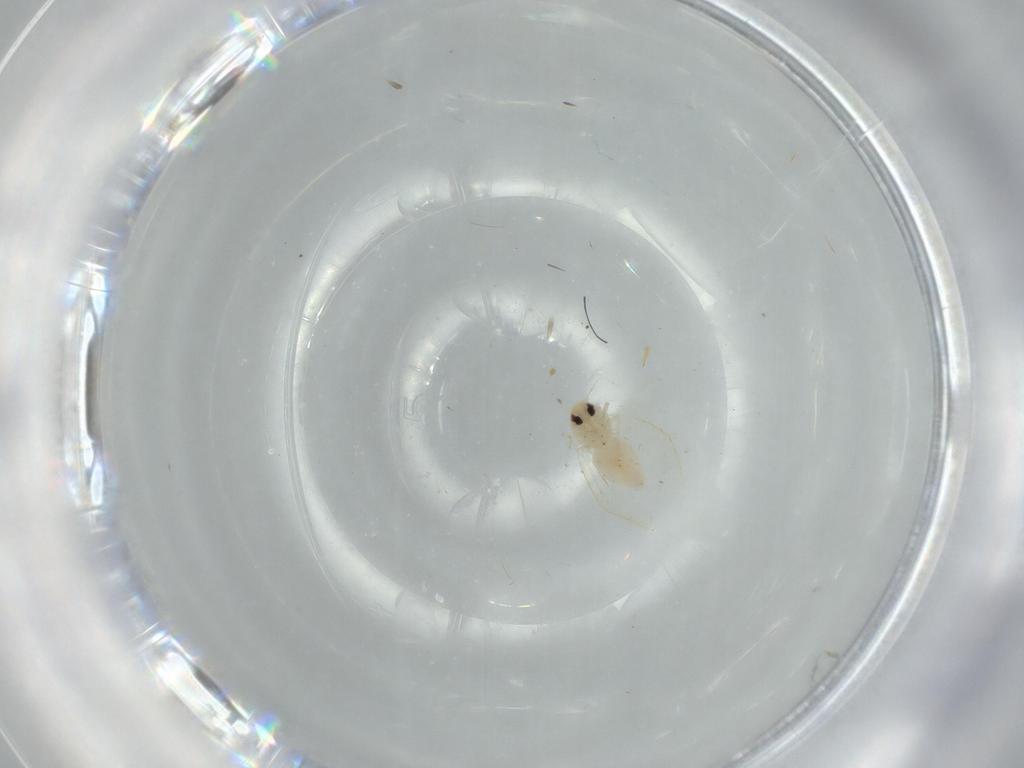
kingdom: Animalia
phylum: Arthropoda
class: Insecta
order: Hemiptera
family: Aleyrodidae
